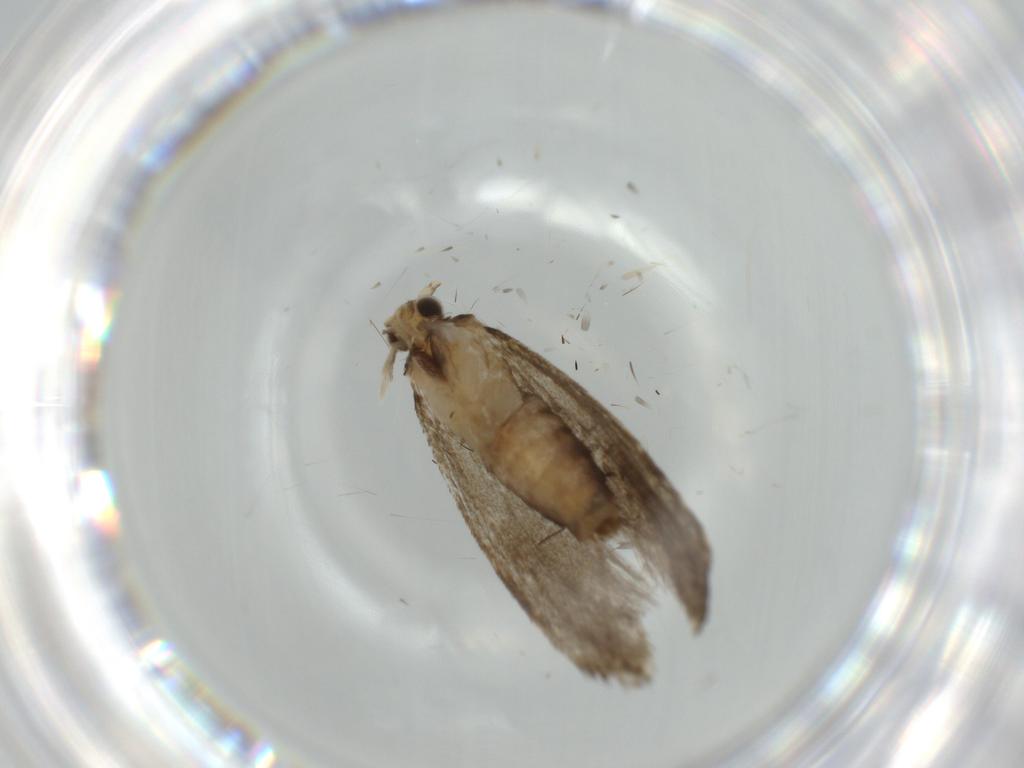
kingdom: Animalia
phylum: Arthropoda
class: Insecta
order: Lepidoptera
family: Tineidae
